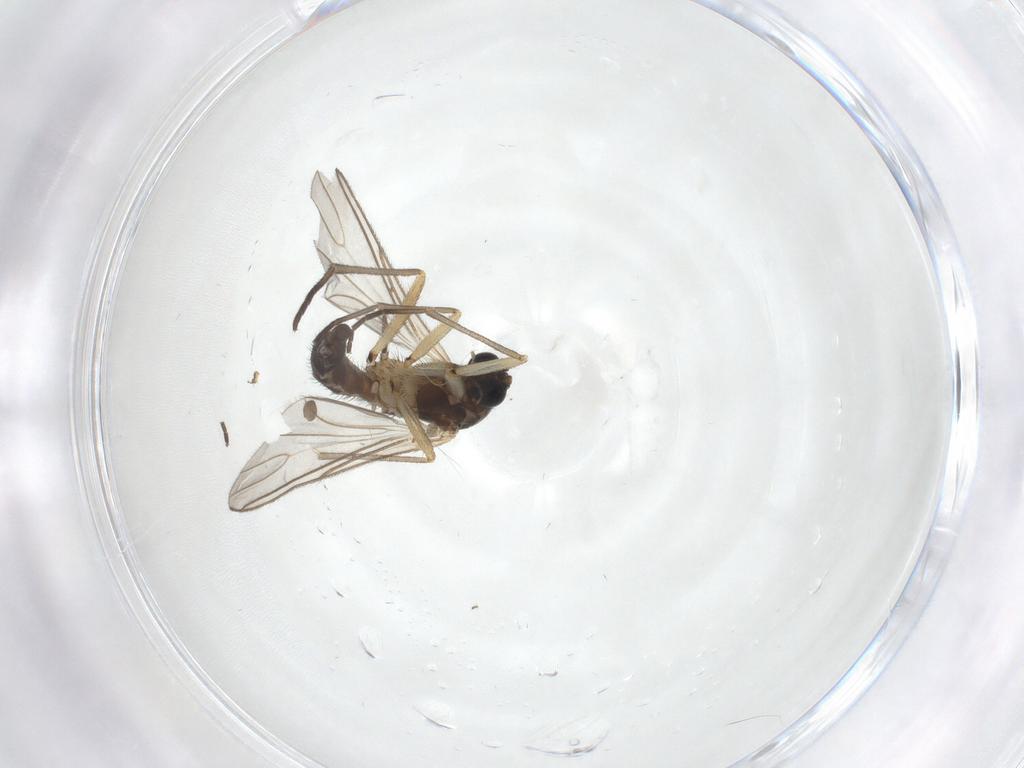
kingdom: Animalia
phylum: Arthropoda
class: Insecta
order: Diptera
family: Sciaridae
